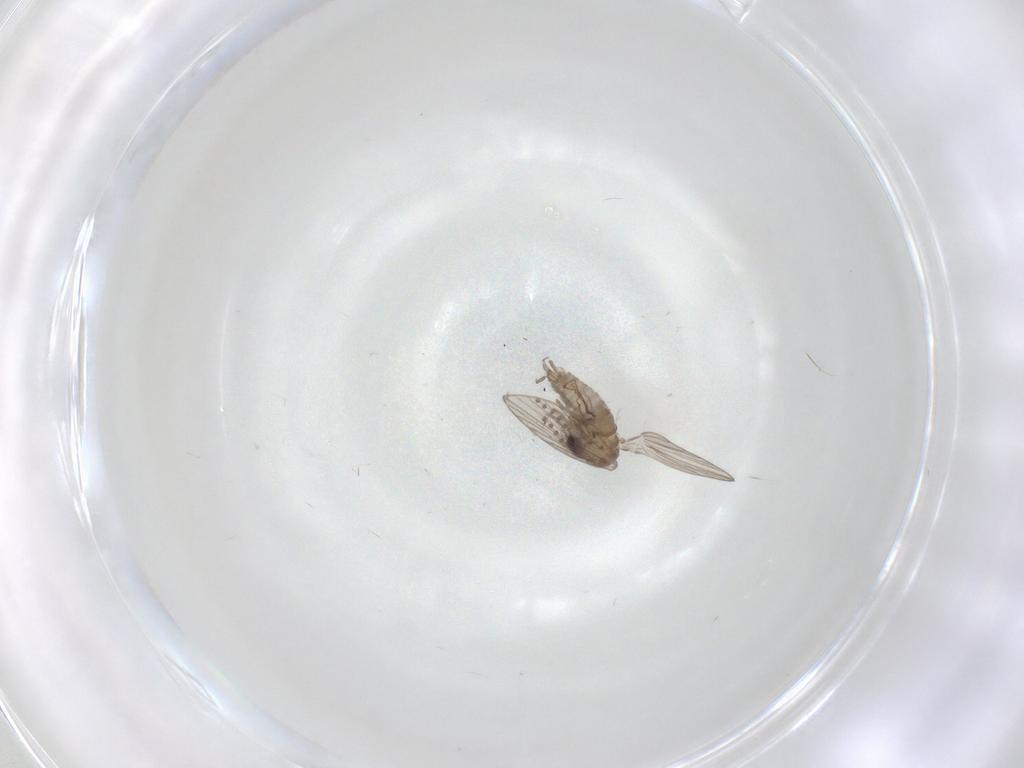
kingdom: Animalia
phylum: Arthropoda
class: Insecta
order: Diptera
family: Psychodidae
